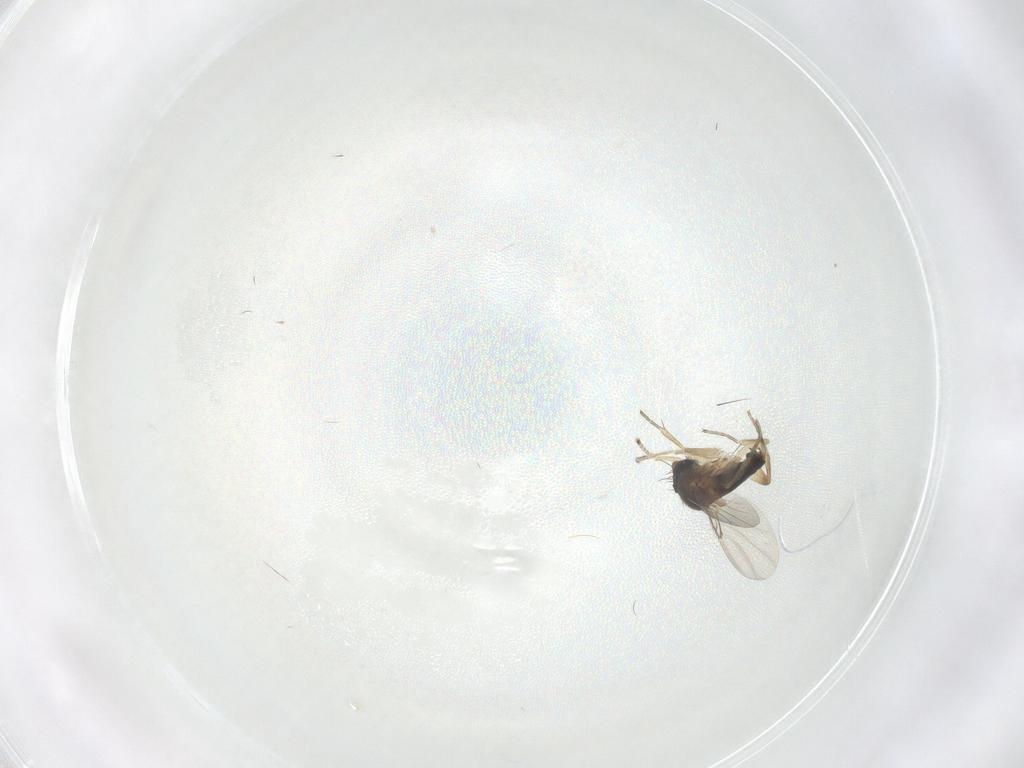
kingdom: Animalia
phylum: Arthropoda
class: Insecta
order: Diptera
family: Phoridae
